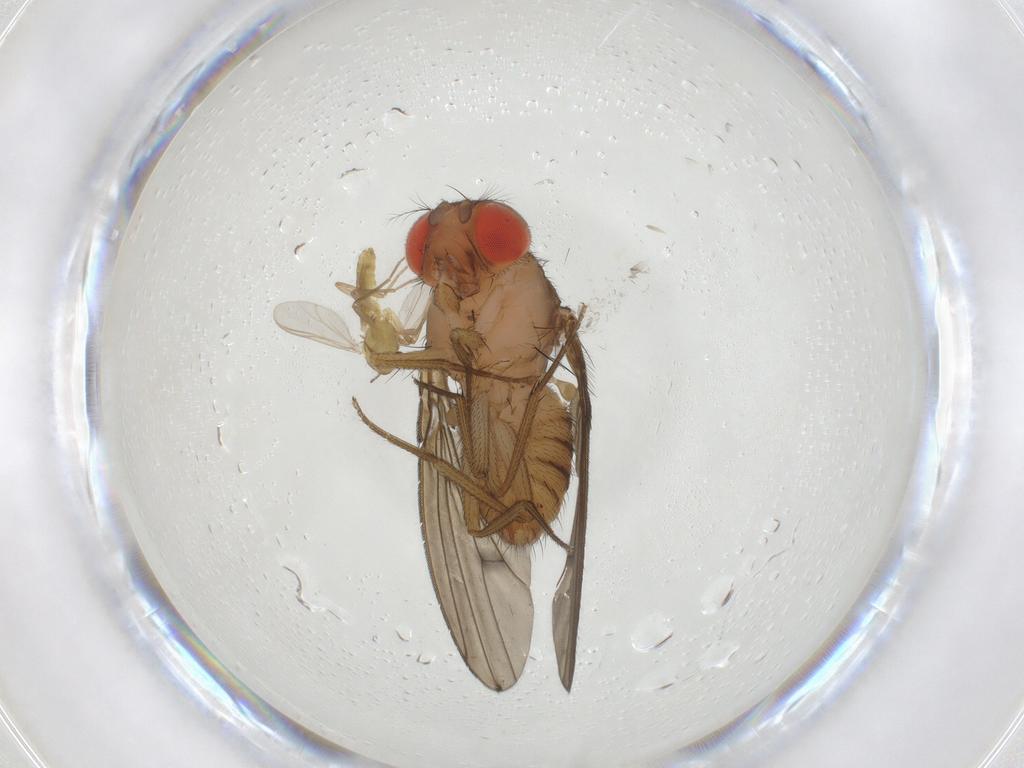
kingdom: Animalia
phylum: Arthropoda
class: Insecta
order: Diptera
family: Drosophilidae
